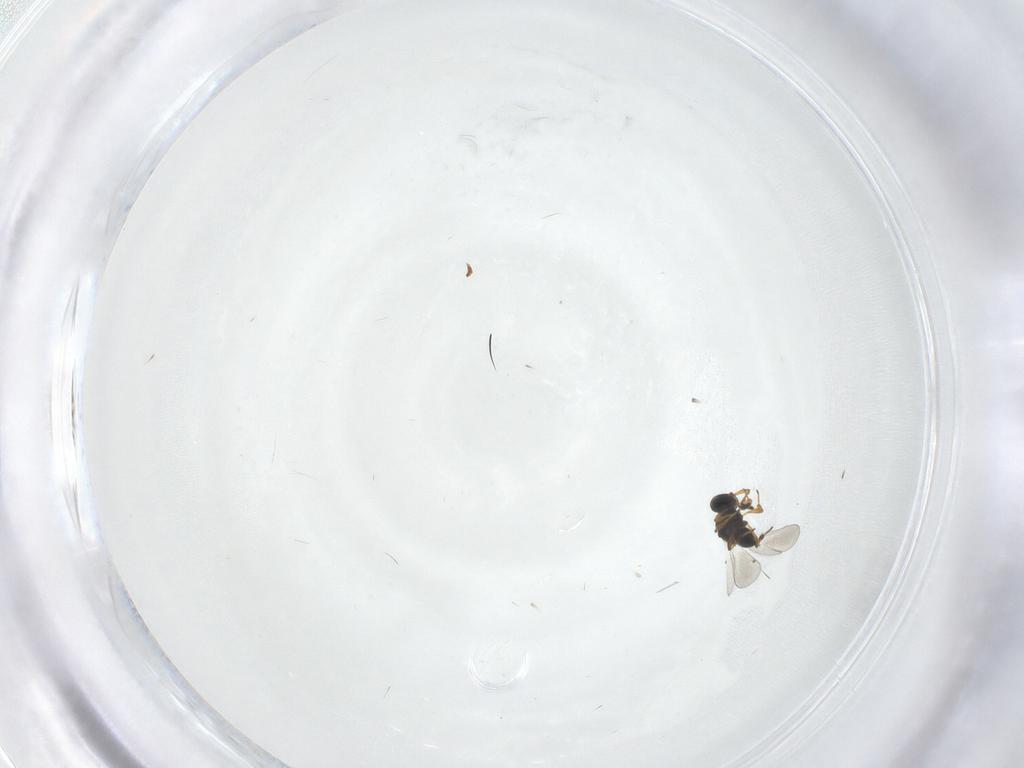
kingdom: Animalia
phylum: Arthropoda
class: Insecta
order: Hymenoptera
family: Platygastridae
